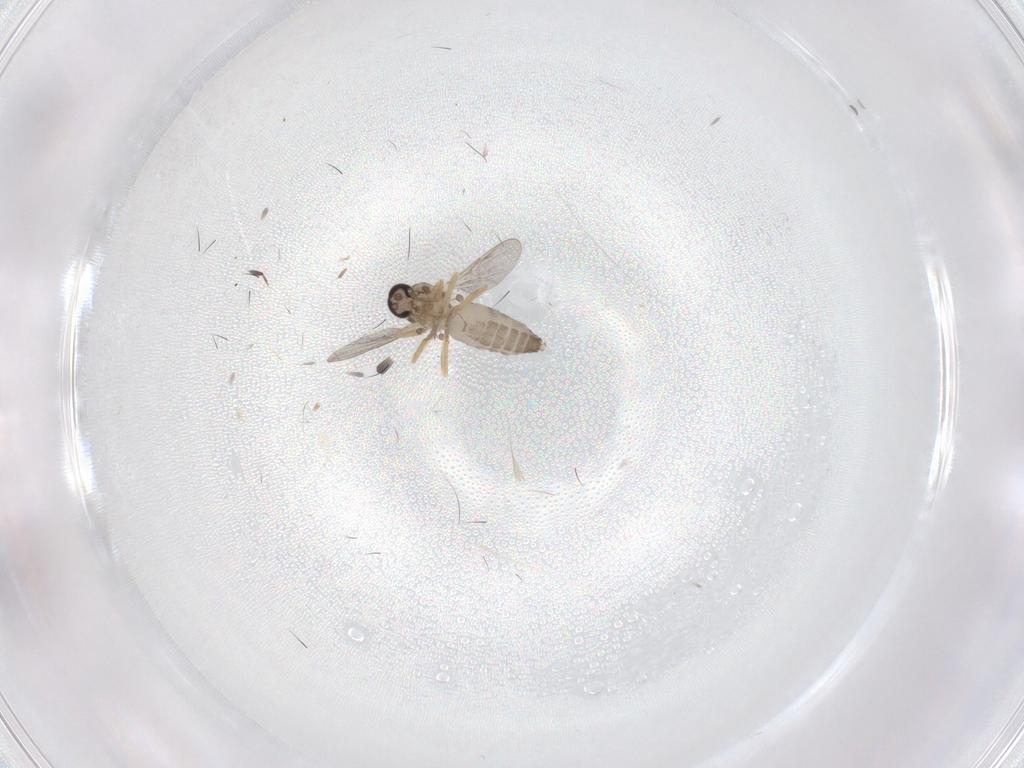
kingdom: Animalia
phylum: Arthropoda
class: Insecta
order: Diptera
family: Ceratopogonidae
